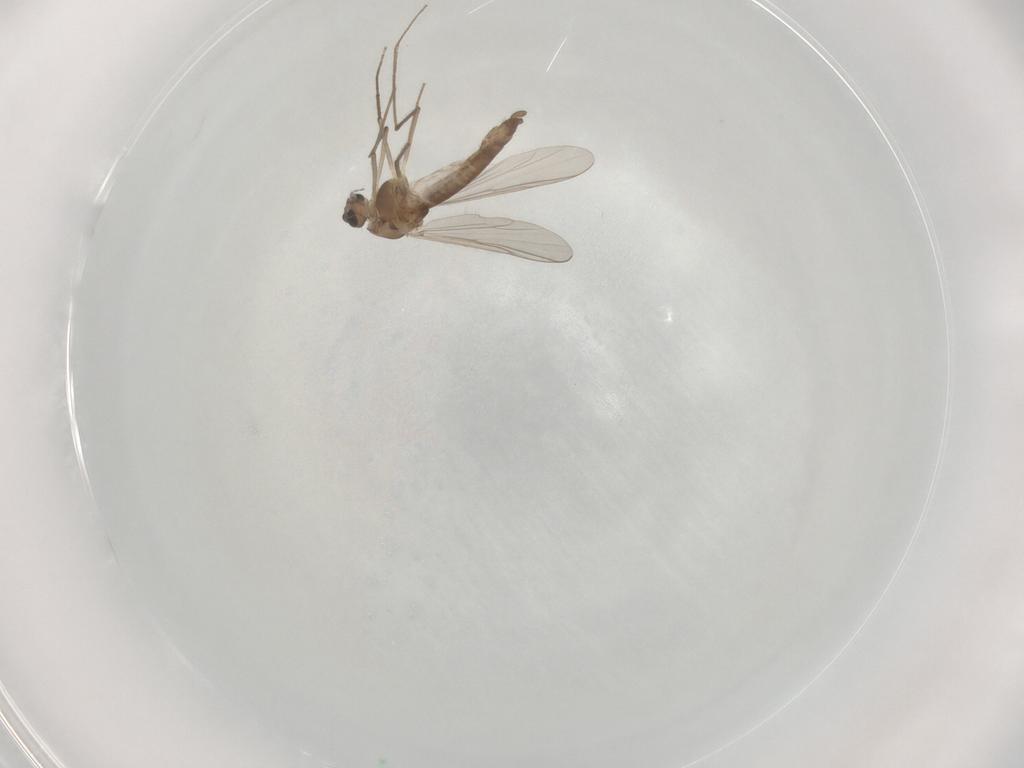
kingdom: Animalia
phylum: Arthropoda
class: Insecta
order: Diptera
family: Chironomidae
